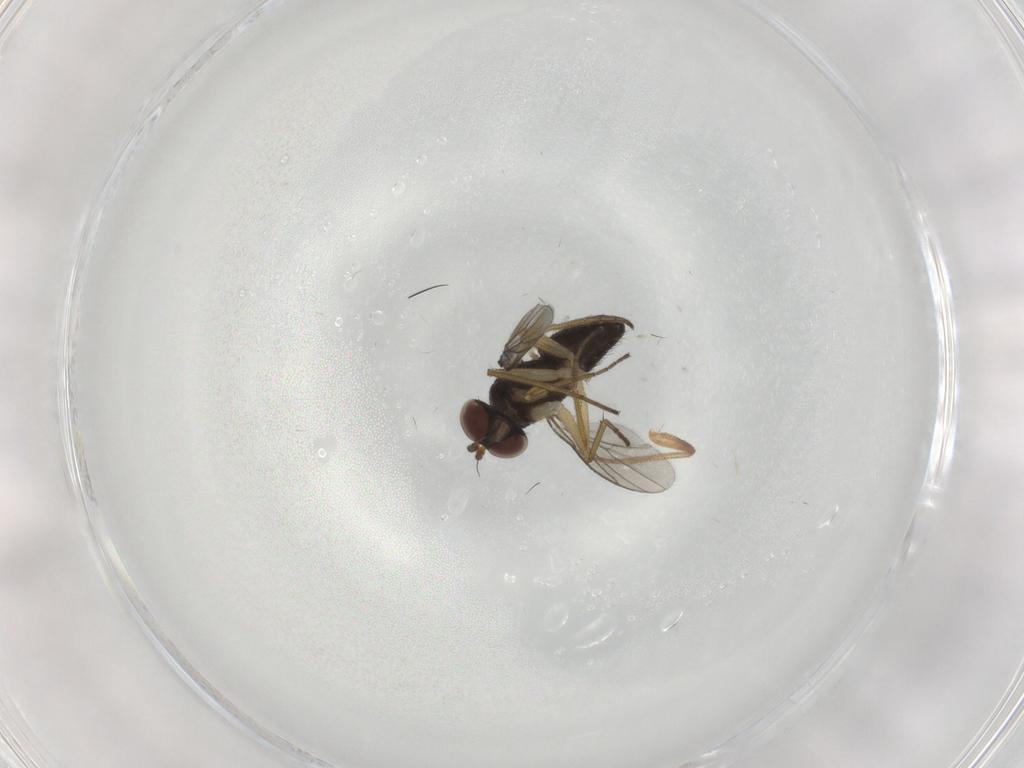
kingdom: Animalia
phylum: Arthropoda
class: Insecta
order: Diptera
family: Dolichopodidae
